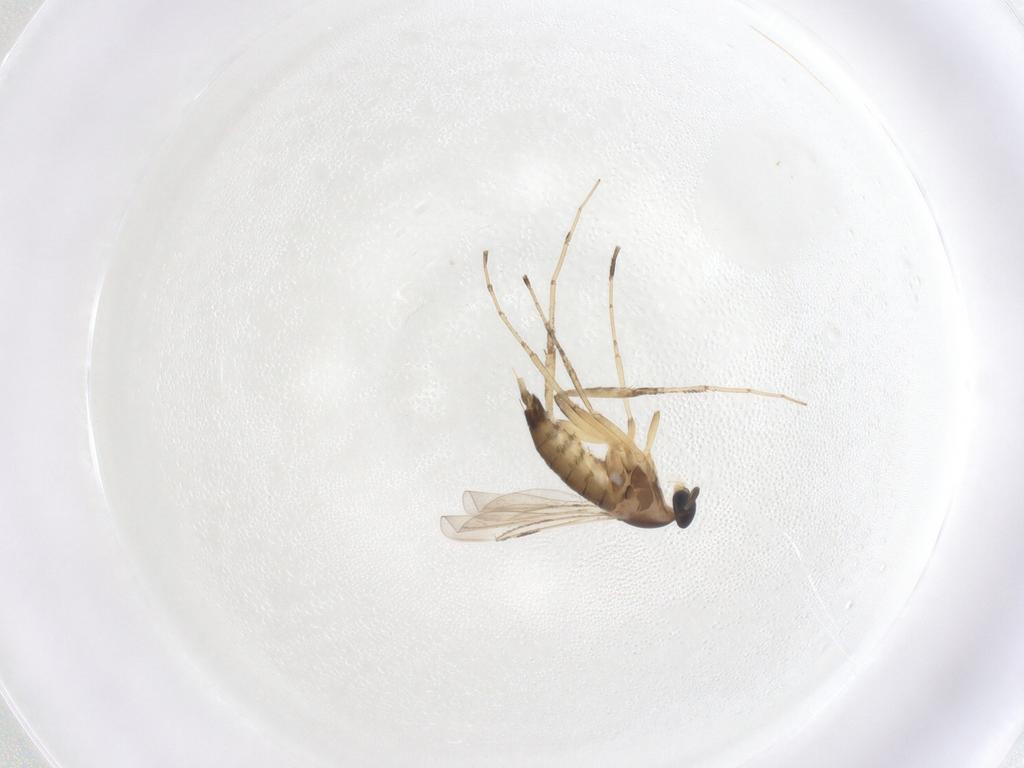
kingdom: Animalia
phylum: Arthropoda
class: Insecta
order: Diptera
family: Cecidomyiidae
